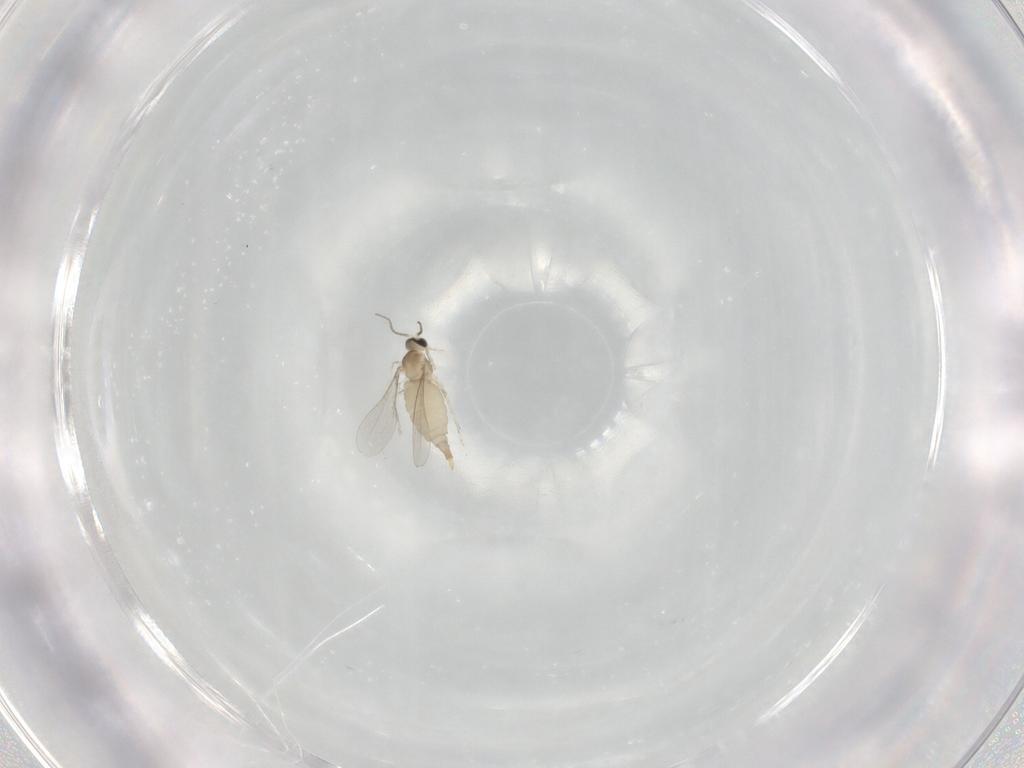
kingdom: Animalia
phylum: Arthropoda
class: Insecta
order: Diptera
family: Cecidomyiidae
